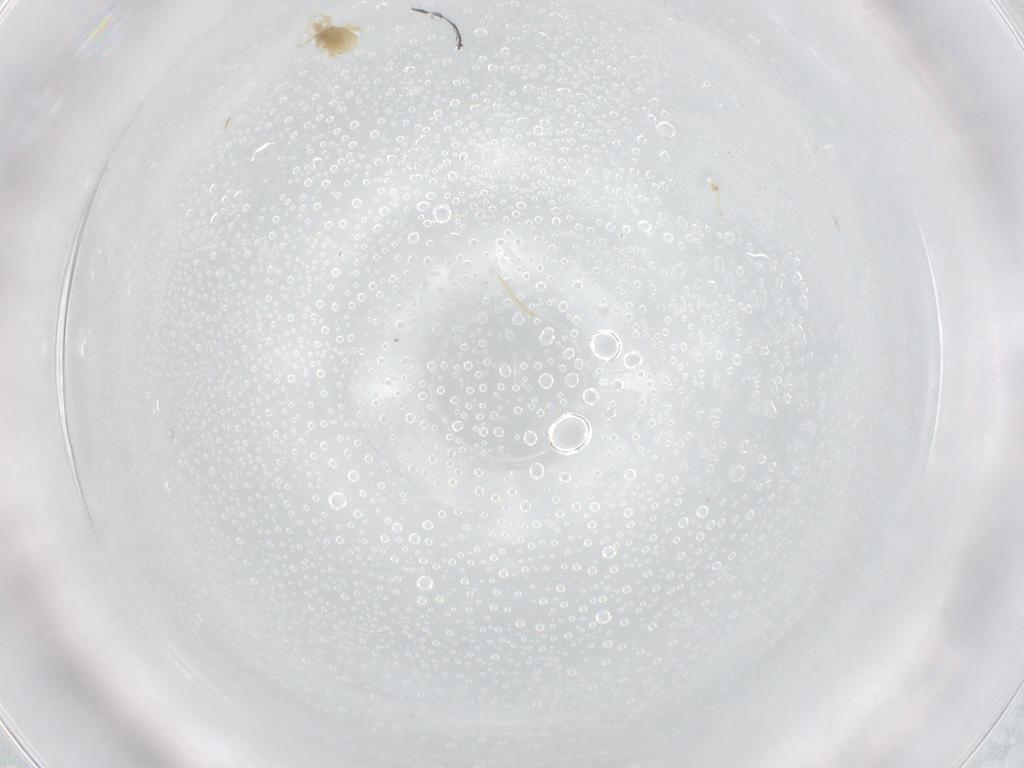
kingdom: Animalia
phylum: Arthropoda
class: Arachnida
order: Trombidiformes
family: Eupodidae
